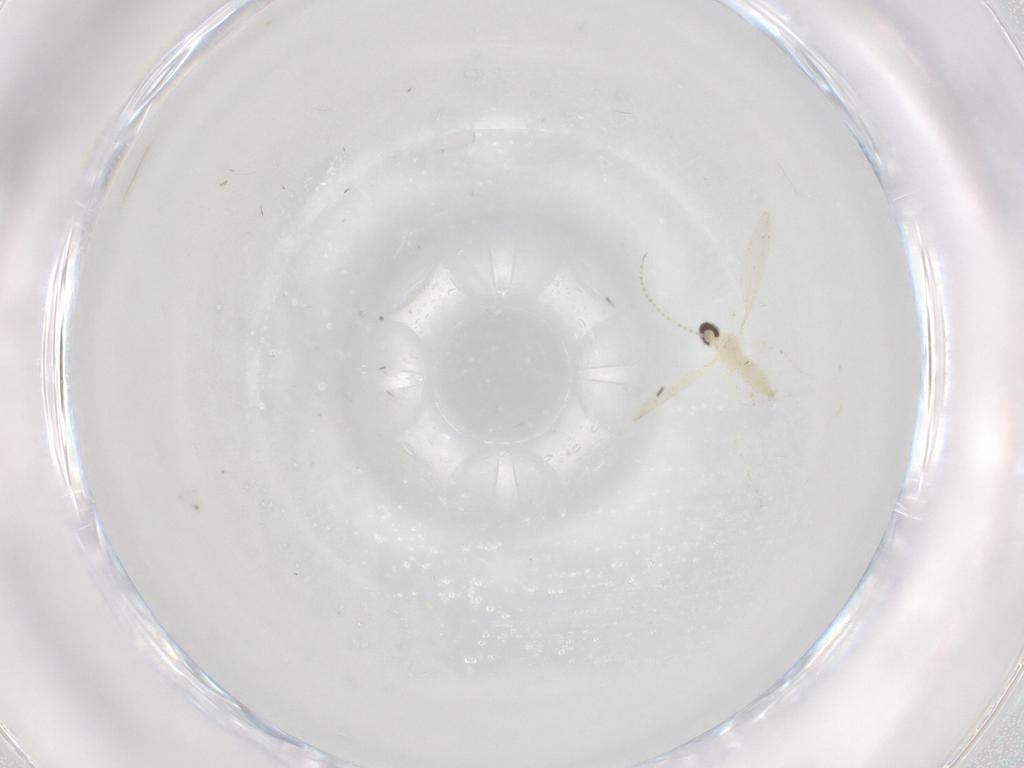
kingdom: Animalia
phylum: Arthropoda
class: Insecta
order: Diptera
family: Cecidomyiidae
